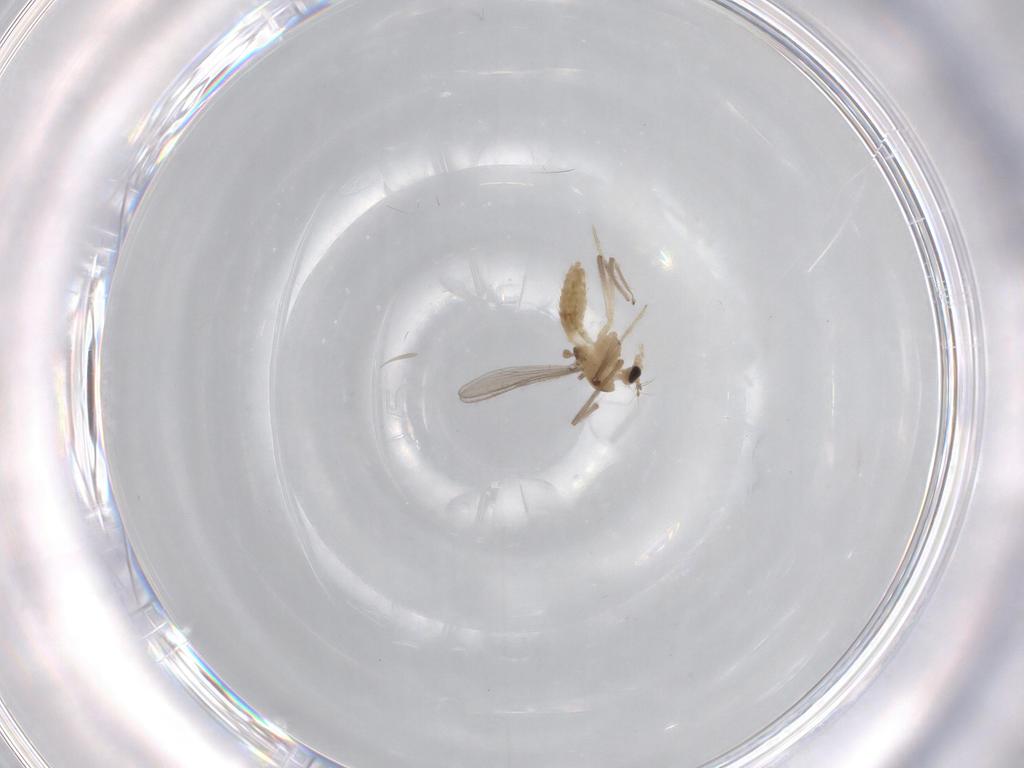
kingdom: Animalia
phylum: Arthropoda
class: Insecta
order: Diptera
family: Chironomidae
